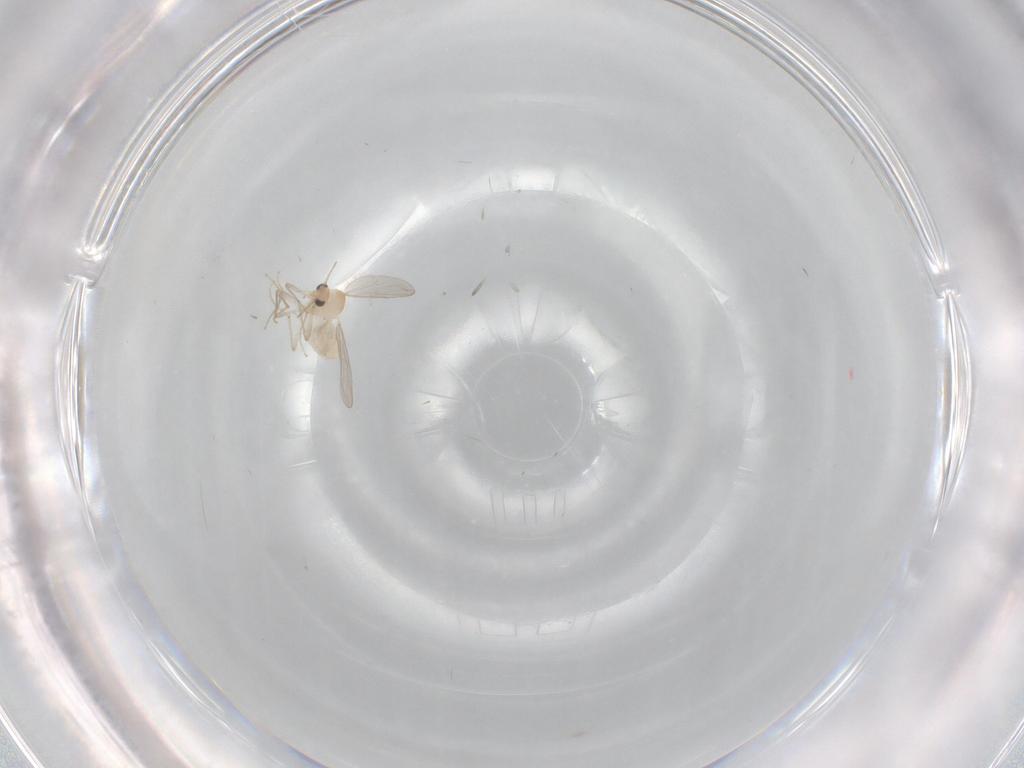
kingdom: Animalia
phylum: Arthropoda
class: Insecta
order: Diptera
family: Chironomidae
